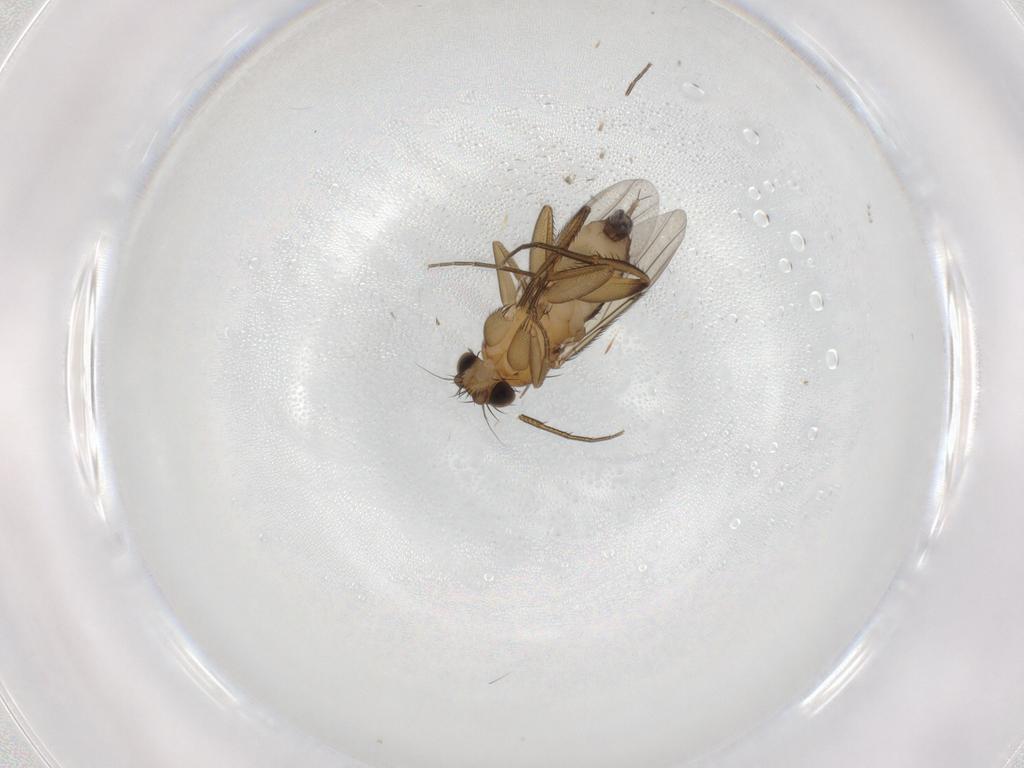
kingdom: Animalia
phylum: Arthropoda
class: Insecta
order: Diptera
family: Phoridae
